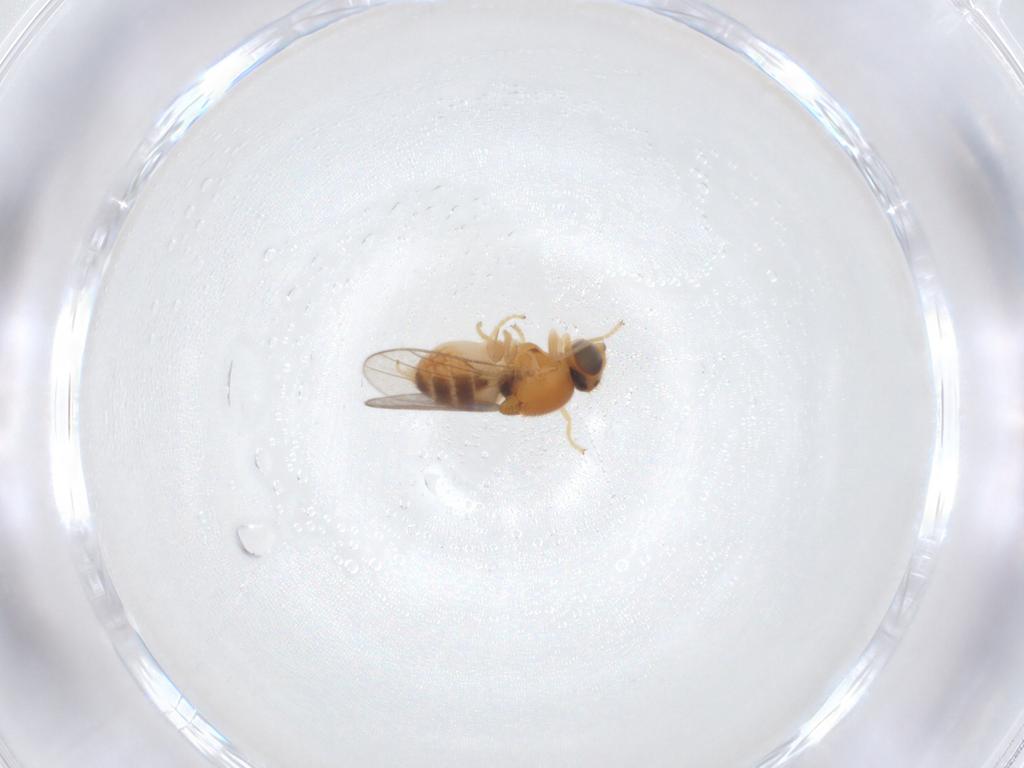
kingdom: Animalia
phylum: Arthropoda
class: Insecta
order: Diptera
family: Chloropidae
